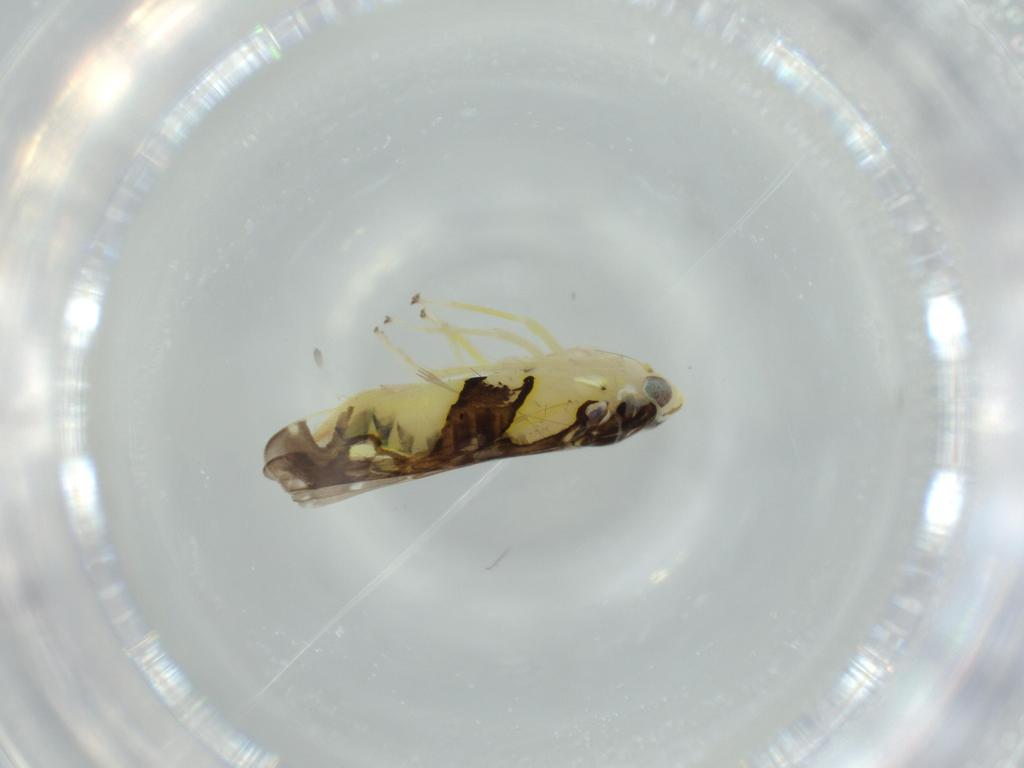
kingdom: Animalia
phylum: Arthropoda
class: Insecta
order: Hemiptera
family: Cicadellidae
